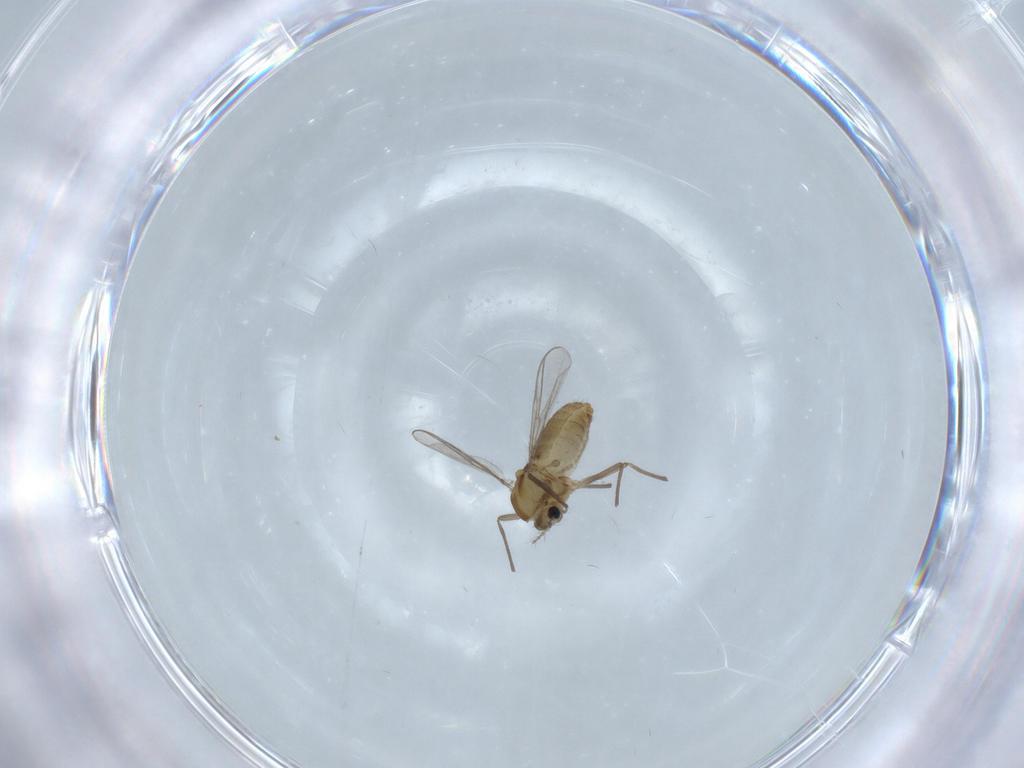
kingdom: Animalia
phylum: Arthropoda
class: Insecta
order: Diptera
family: Chironomidae
